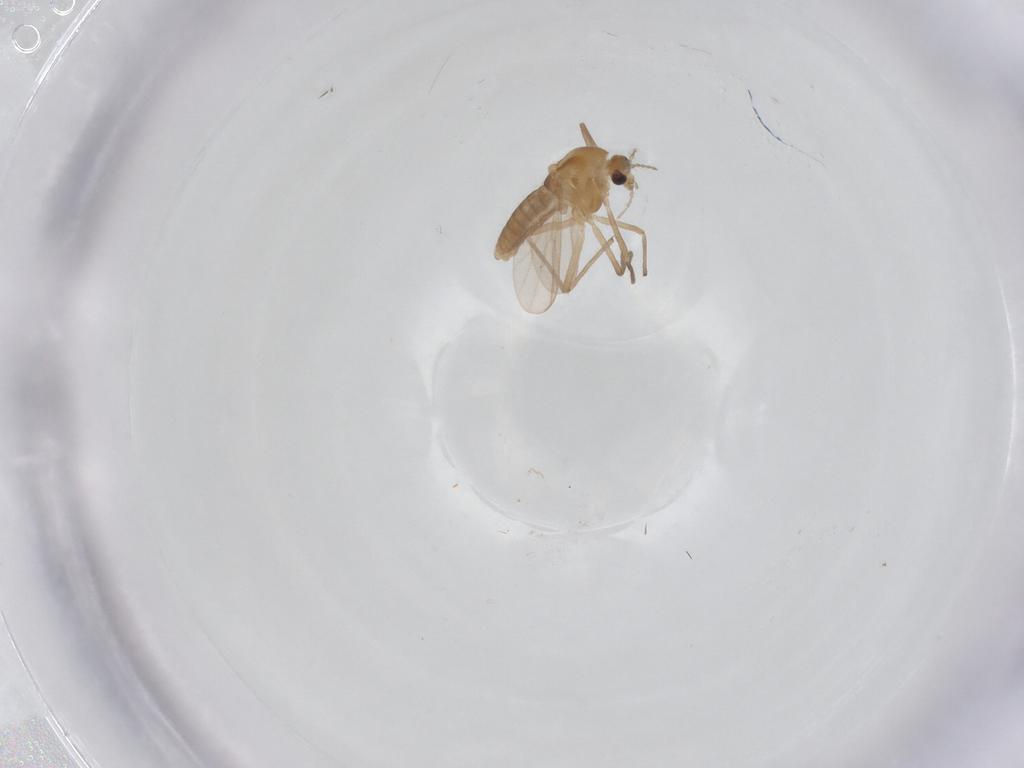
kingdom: Animalia
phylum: Arthropoda
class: Insecta
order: Diptera
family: Chironomidae
